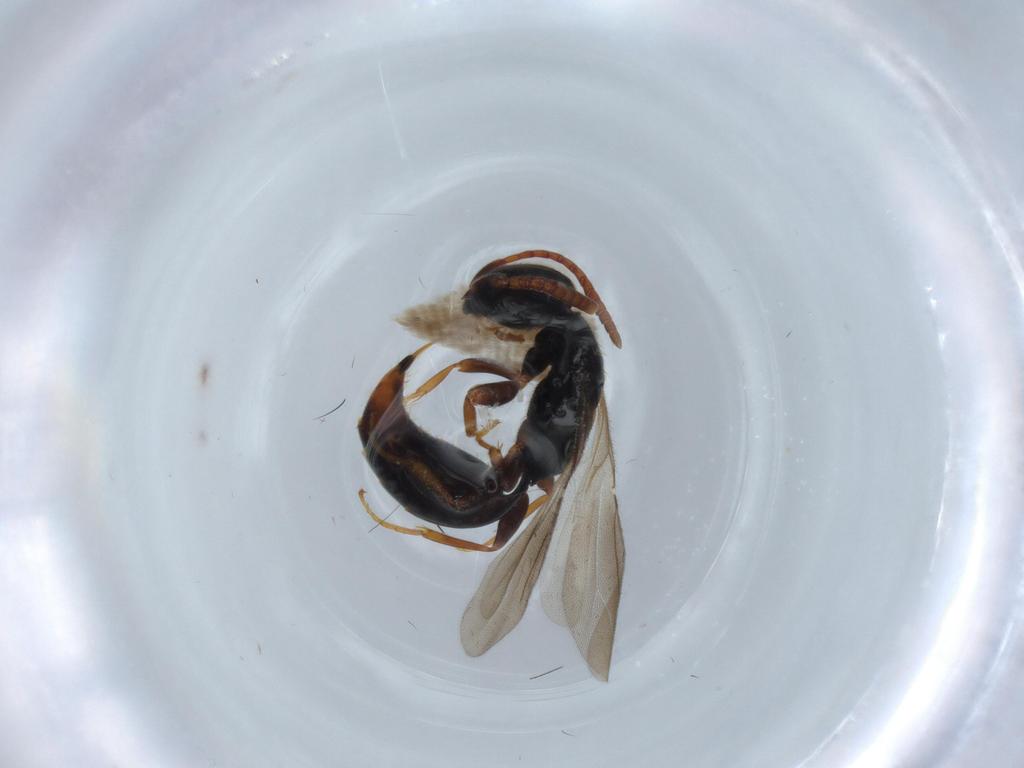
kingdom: Animalia
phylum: Arthropoda
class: Insecta
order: Hymenoptera
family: Bethylidae
